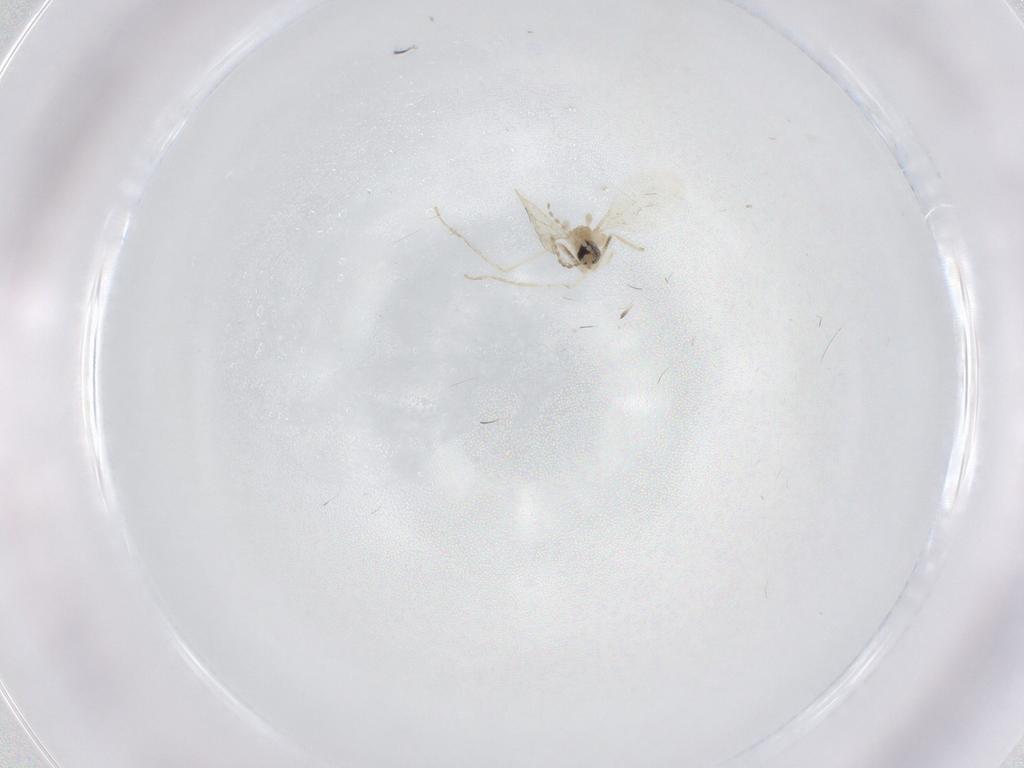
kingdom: Animalia
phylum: Arthropoda
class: Insecta
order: Diptera
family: Cecidomyiidae
